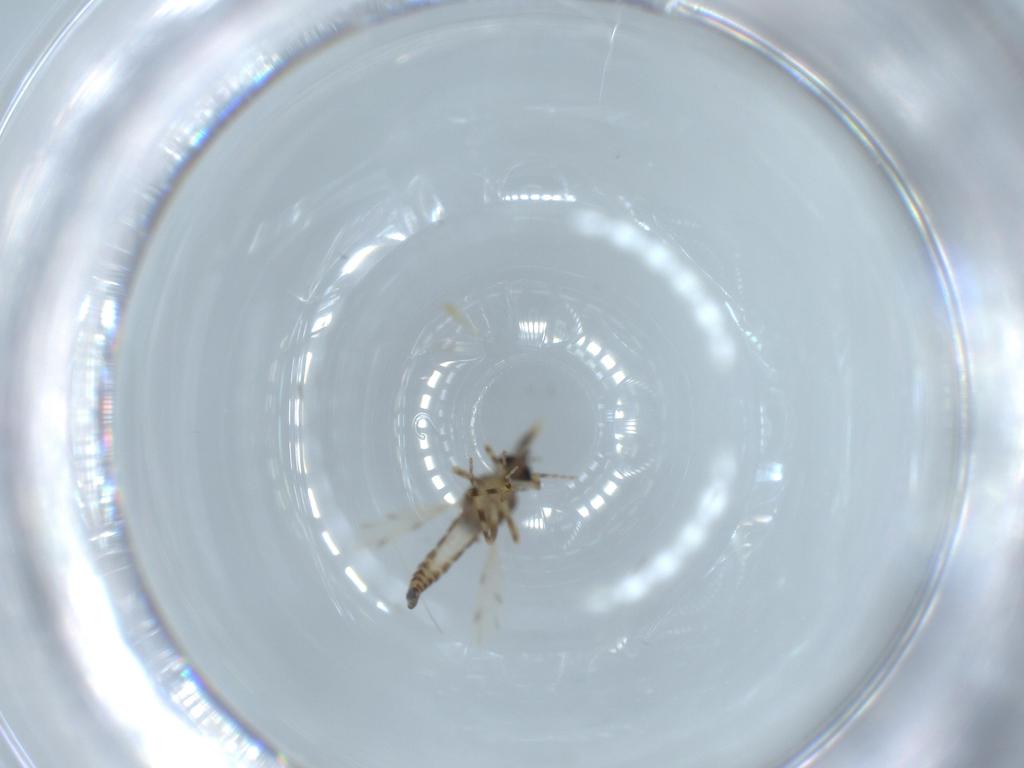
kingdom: Animalia
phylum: Arthropoda
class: Insecta
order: Diptera
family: Ceratopogonidae
